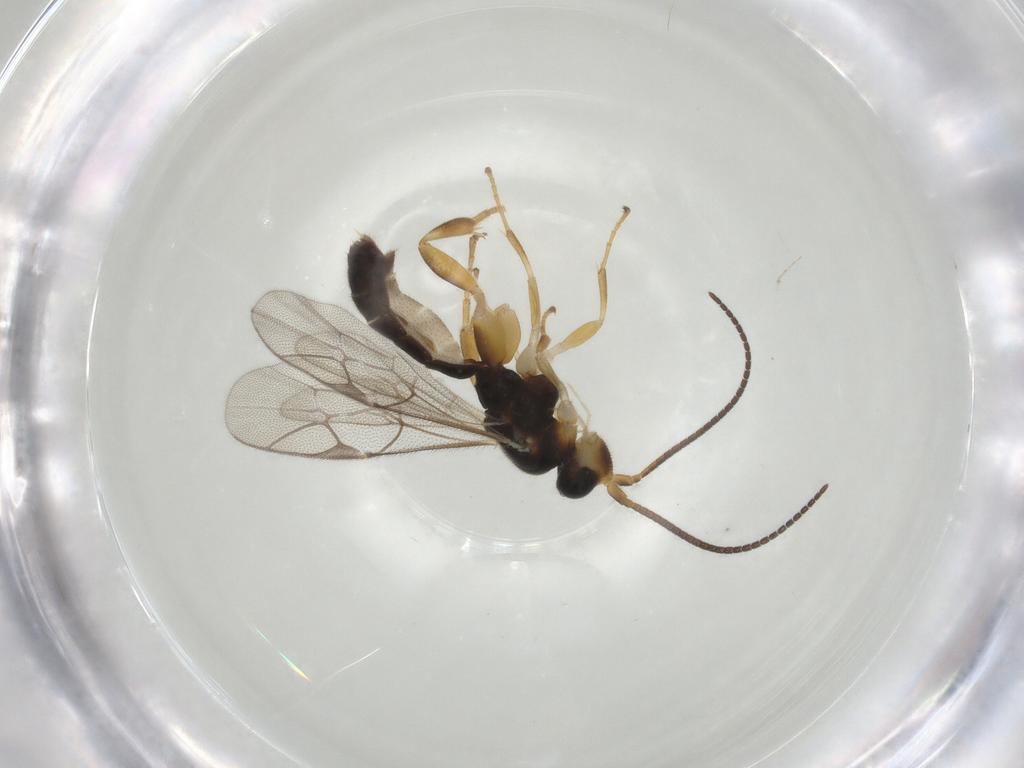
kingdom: Animalia
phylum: Arthropoda
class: Insecta
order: Hymenoptera
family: Ichneumonidae
